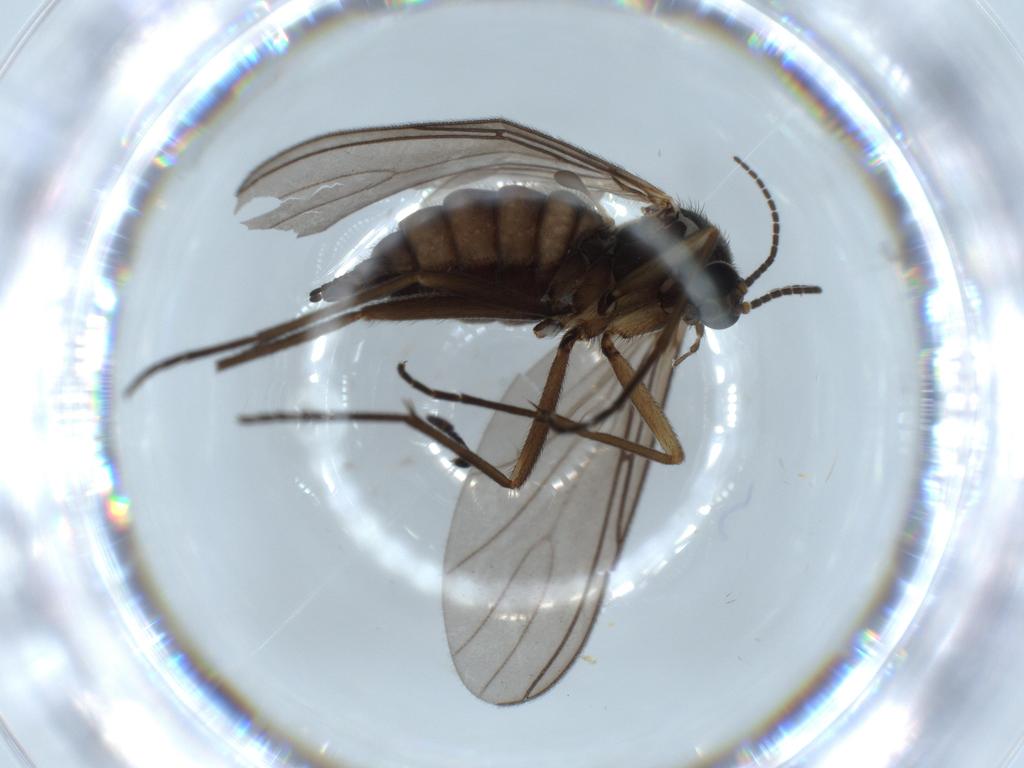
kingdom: Animalia
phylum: Arthropoda
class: Insecta
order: Diptera
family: Sciaridae
